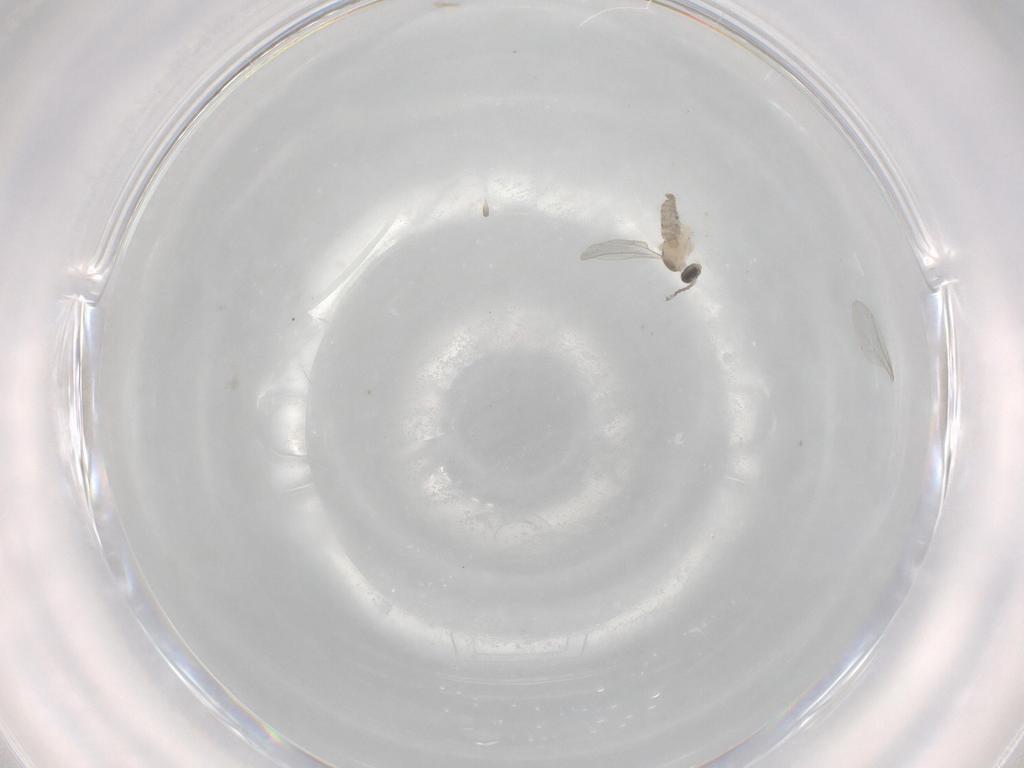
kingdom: Animalia
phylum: Arthropoda
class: Insecta
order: Diptera
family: Cecidomyiidae
